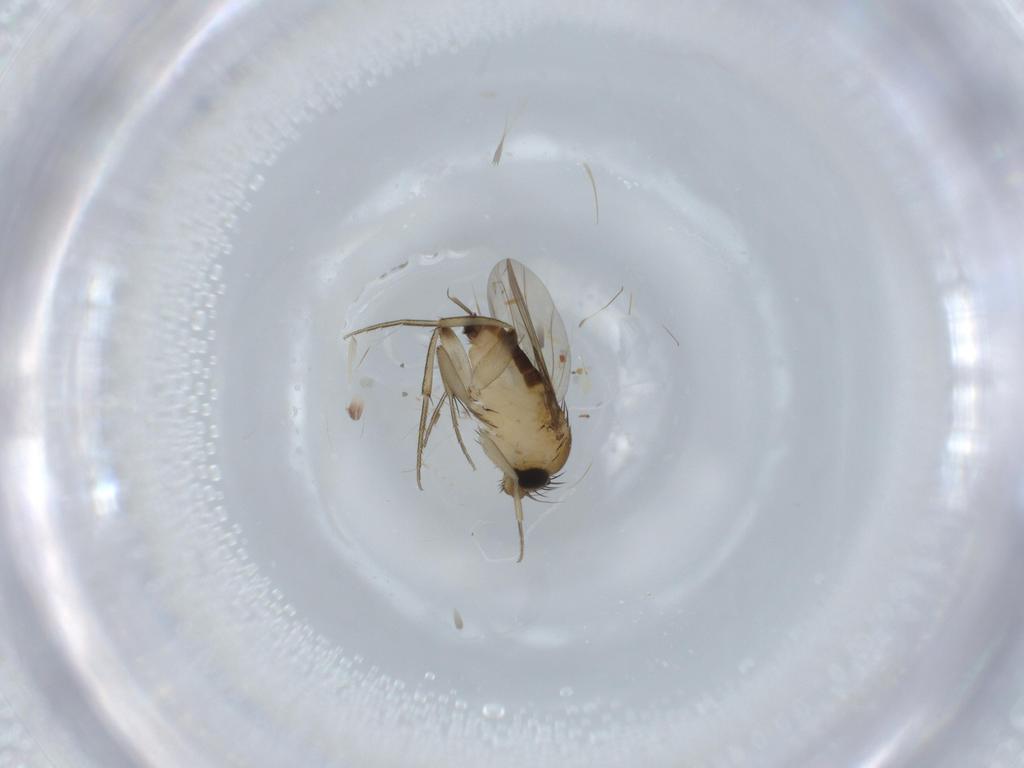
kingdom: Animalia
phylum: Arthropoda
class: Insecta
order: Diptera
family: Phoridae
